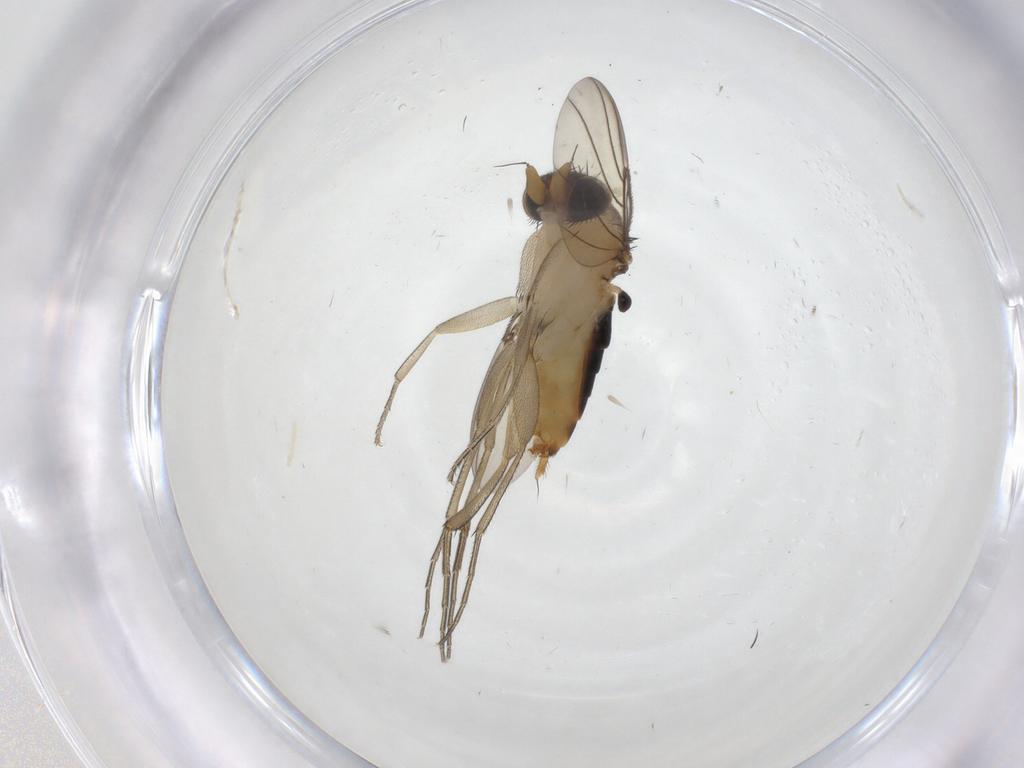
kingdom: Animalia
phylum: Arthropoda
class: Insecta
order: Diptera
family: Phoridae
